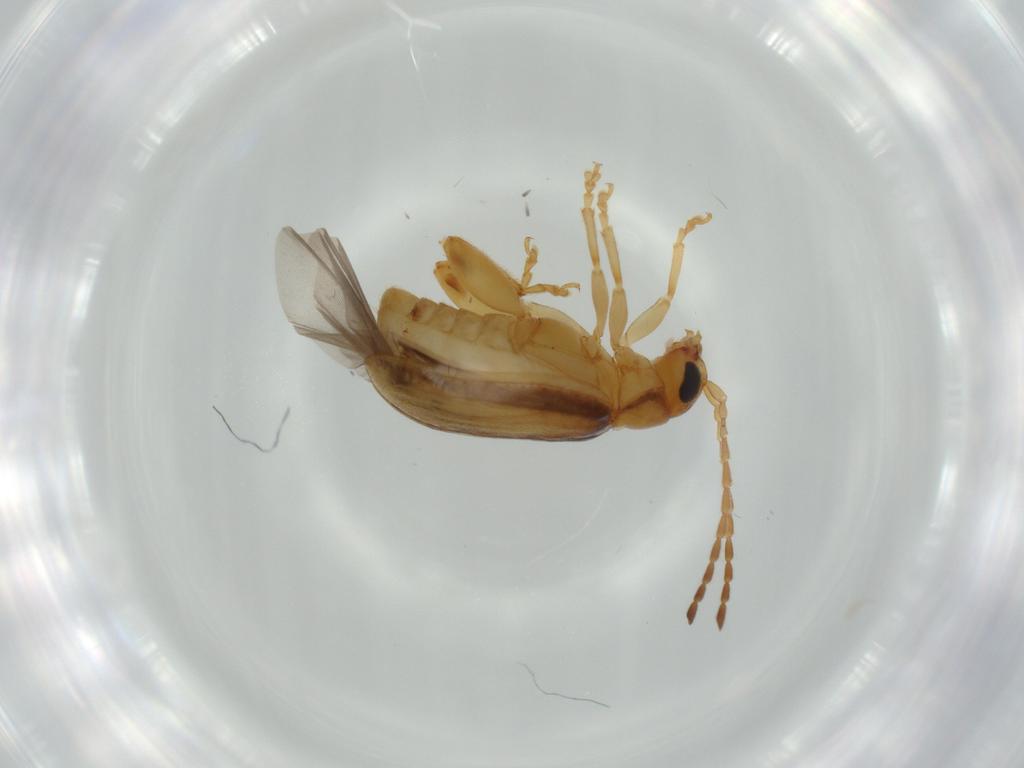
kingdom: Animalia
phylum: Arthropoda
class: Insecta
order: Coleoptera
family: Chrysomelidae
